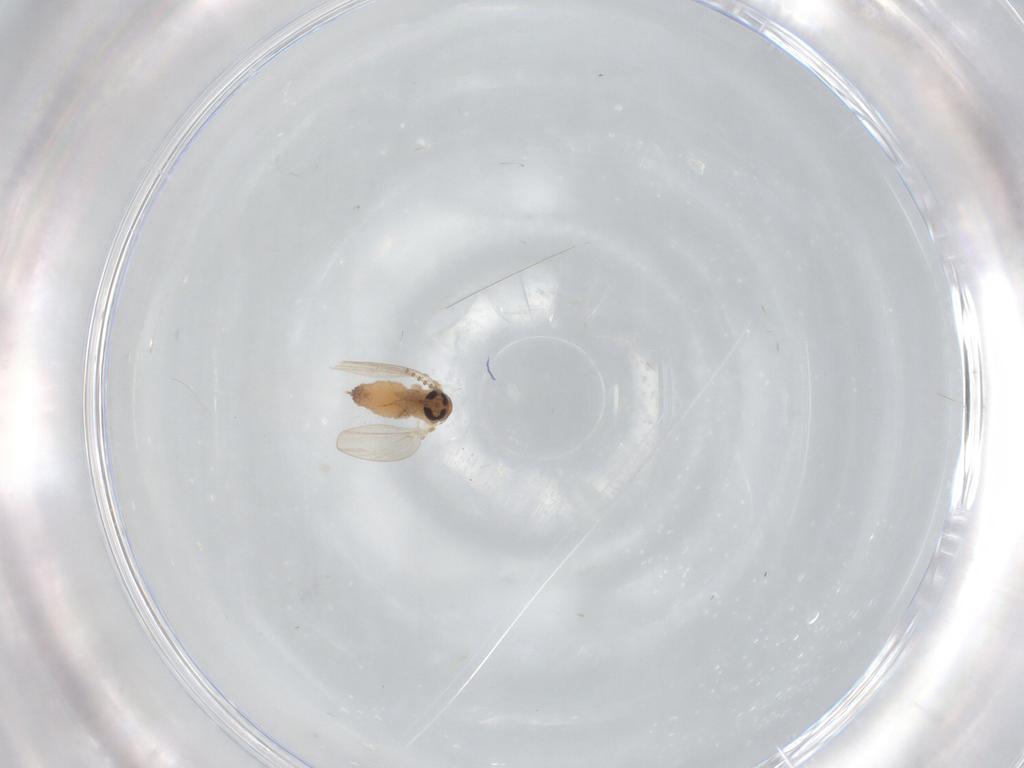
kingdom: Animalia
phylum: Arthropoda
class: Insecta
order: Diptera
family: Psychodidae
